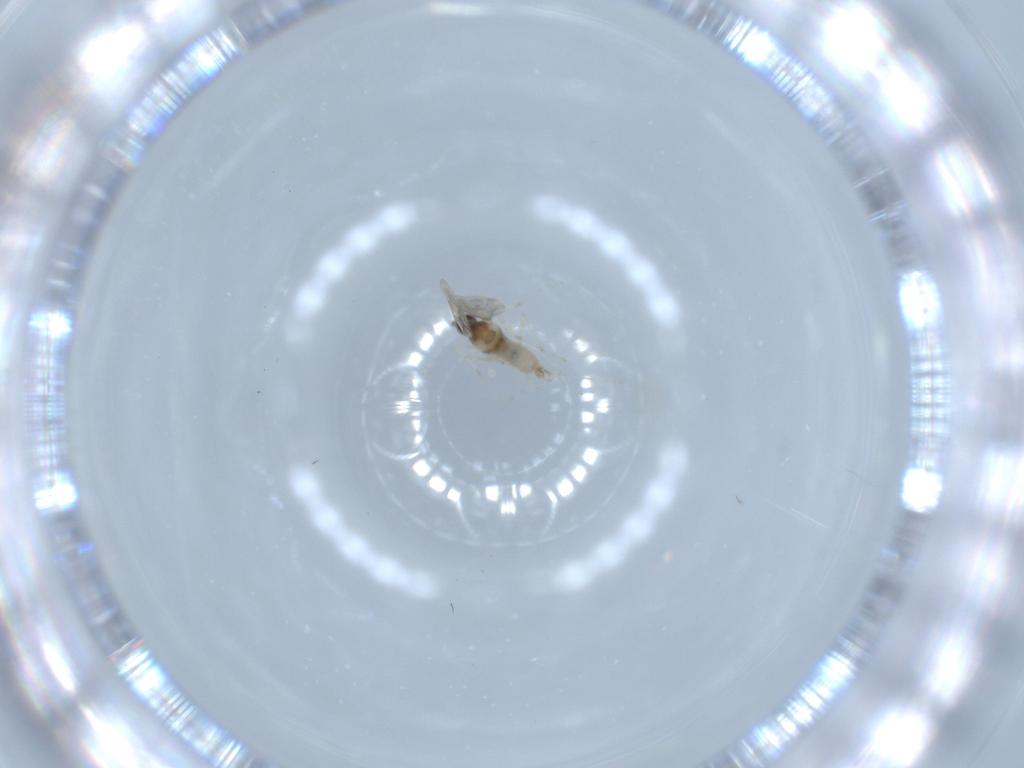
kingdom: Animalia
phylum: Arthropoda
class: Insecta
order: Diptera
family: Cecidomyiidae
